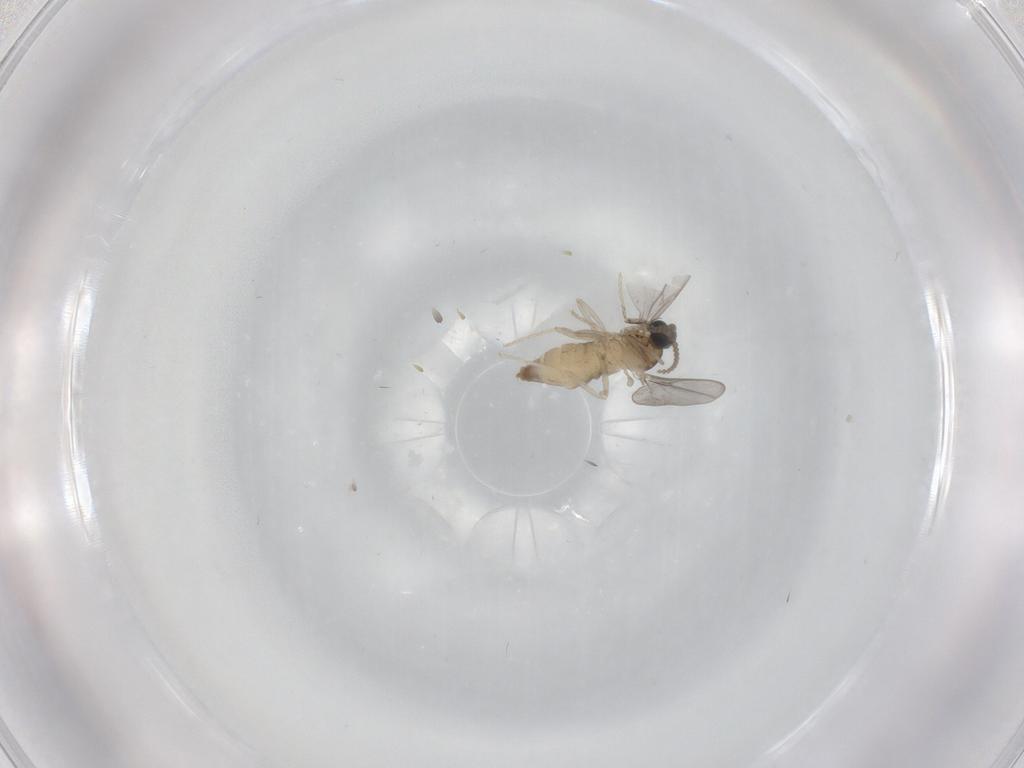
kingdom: Animalia
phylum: Arthropoda
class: Insecta
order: Diptera
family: Cecidomyiidae
